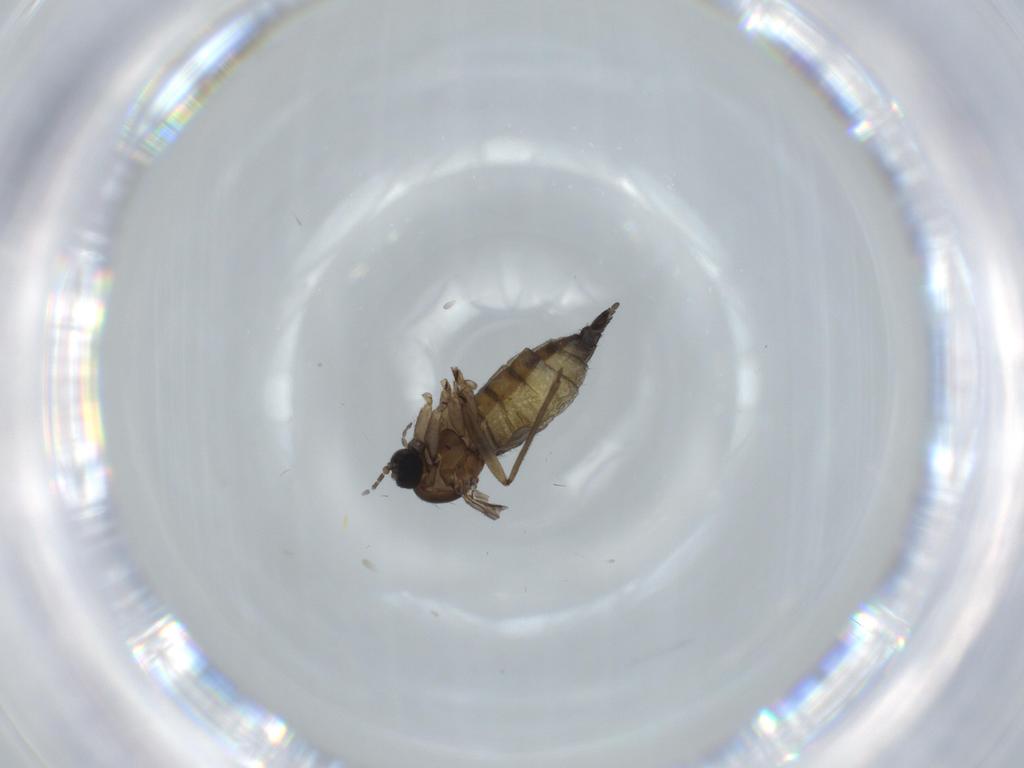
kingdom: Animalia
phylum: Arthropoda
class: Insecta
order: Diptera
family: Sciaridae
